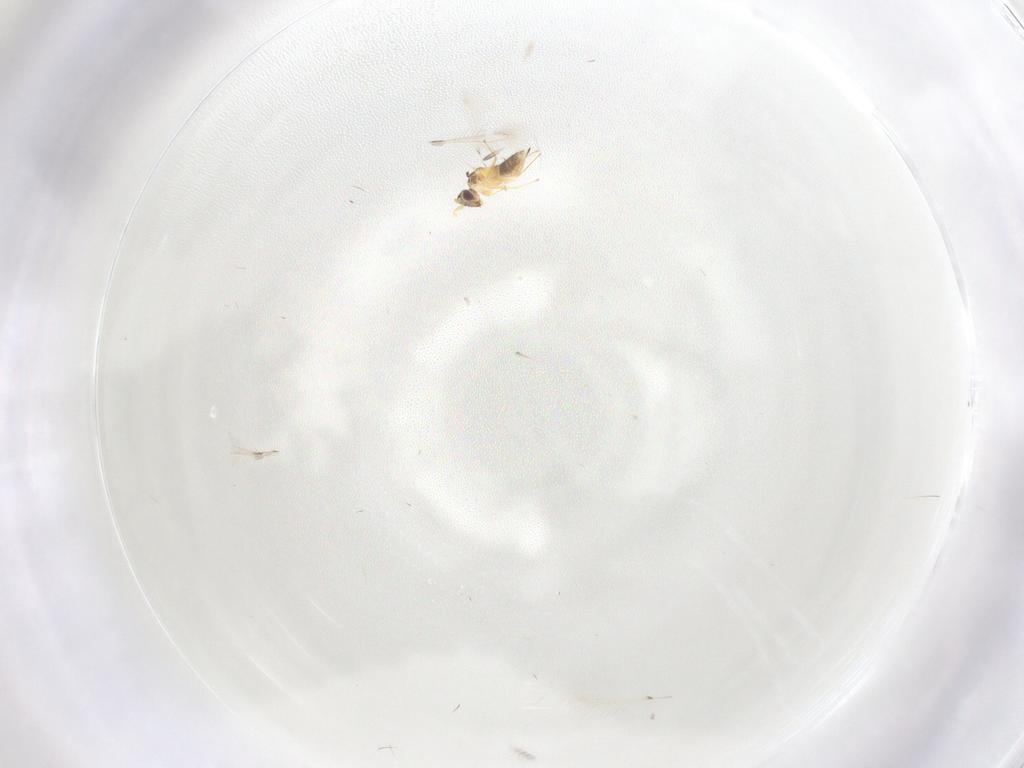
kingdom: Animalia
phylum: Arthropoda
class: Insecta
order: Hymenoptera
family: Mymaridae
